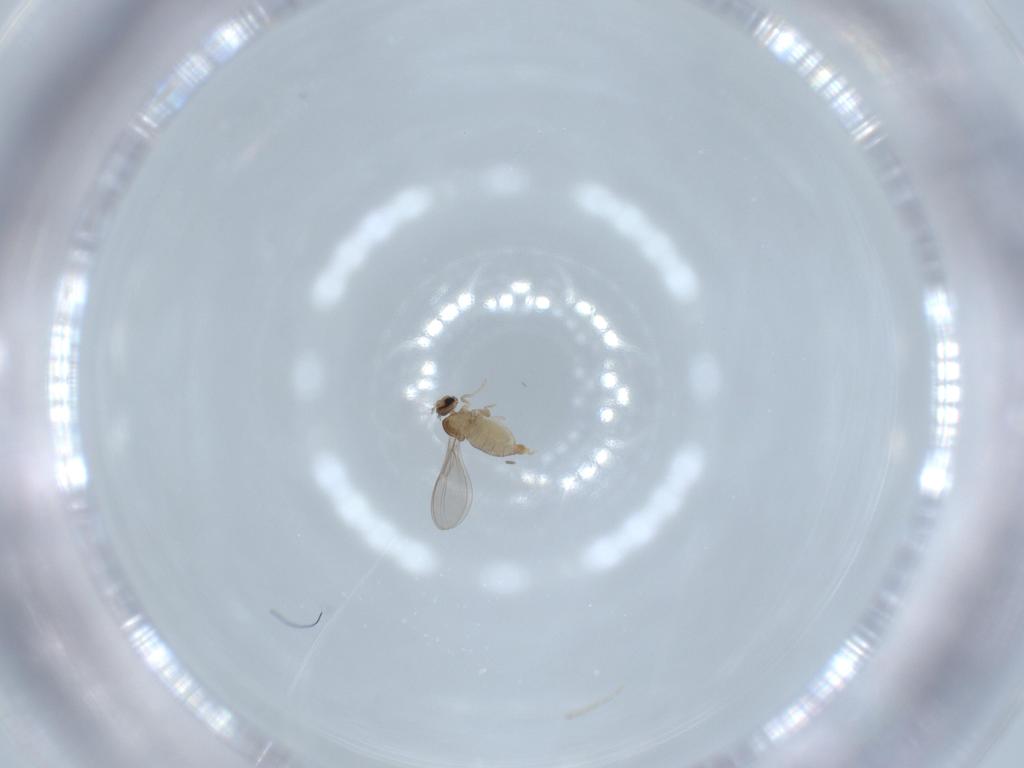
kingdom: Animalia
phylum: Arthropoda
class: Insecta
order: Diptera
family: Cecidomyiidae
